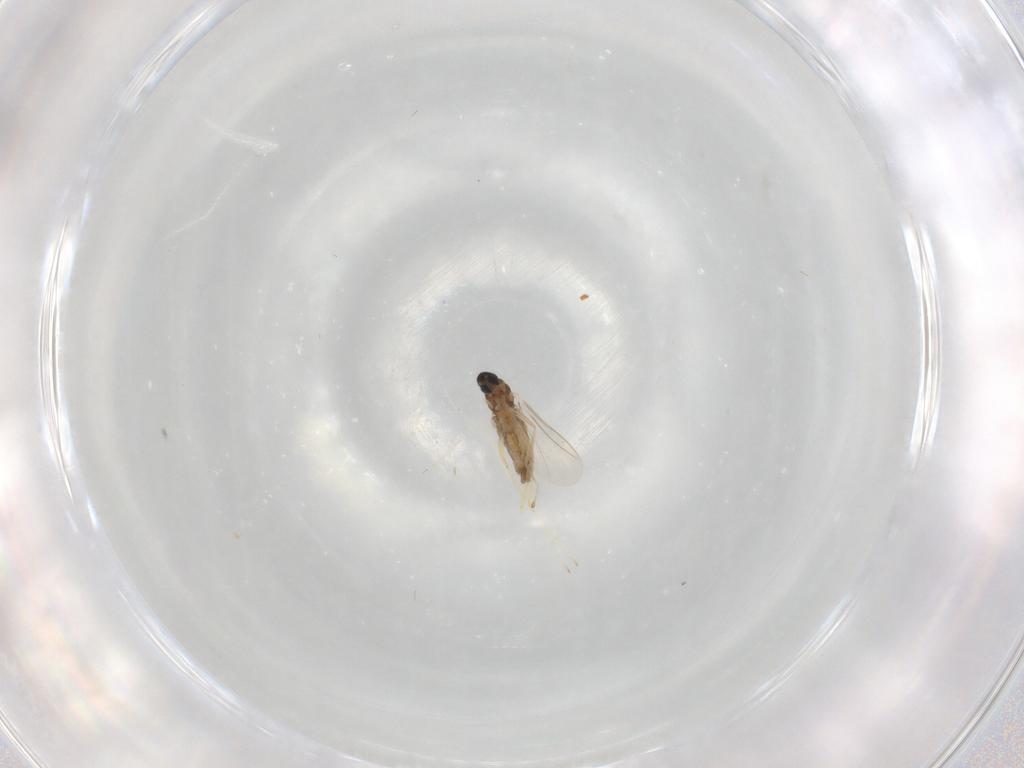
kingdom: Animalia
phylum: Arthropoda
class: Insecta
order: Diptera
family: Cecidomyiidae
